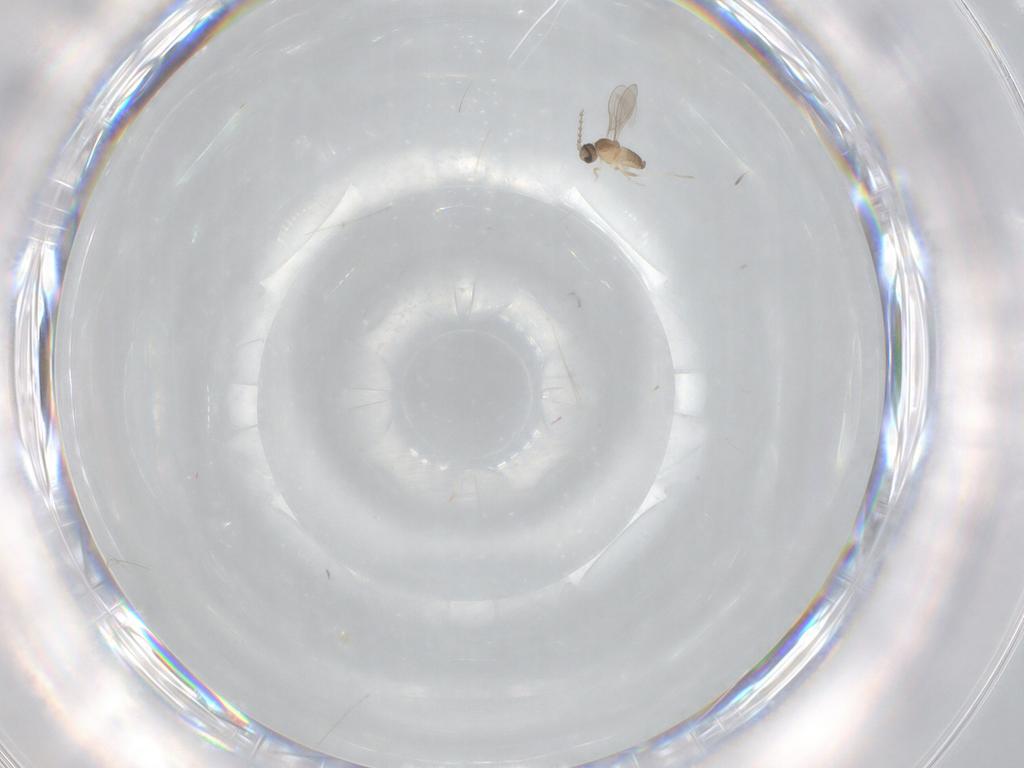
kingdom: Animalia
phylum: Arthropoda
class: Insecta
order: Diptera
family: Cecidomyiidae
